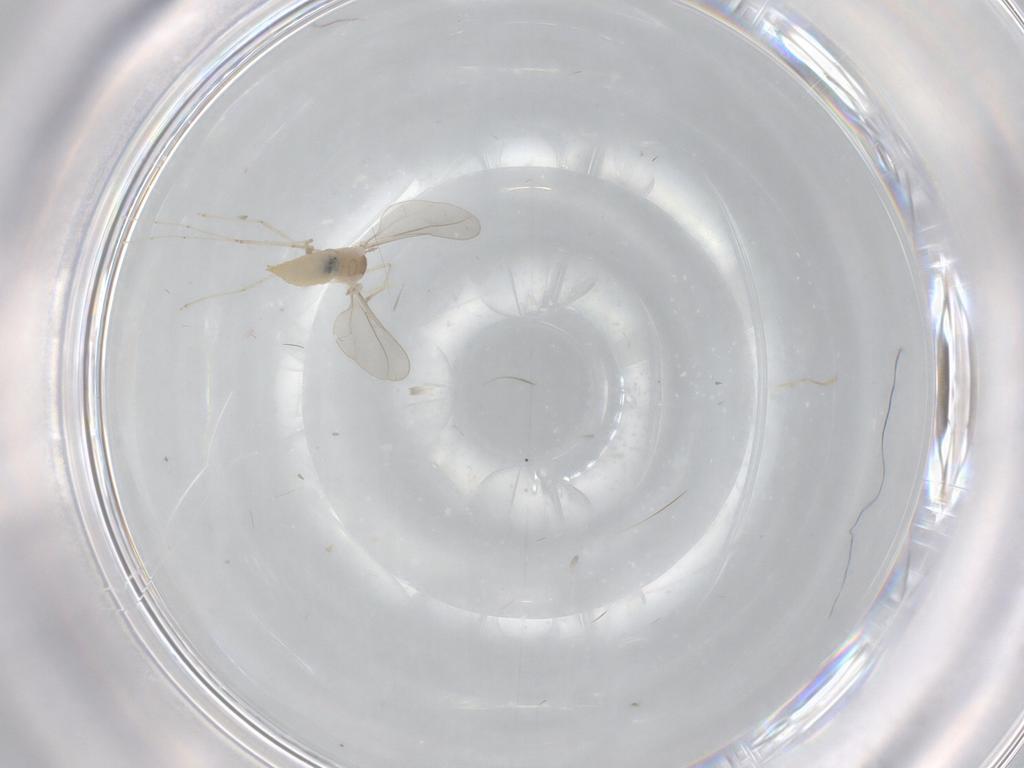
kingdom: Animalia
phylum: Arthropoda
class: Insecta
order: Diptera
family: Cecidomyiidae
